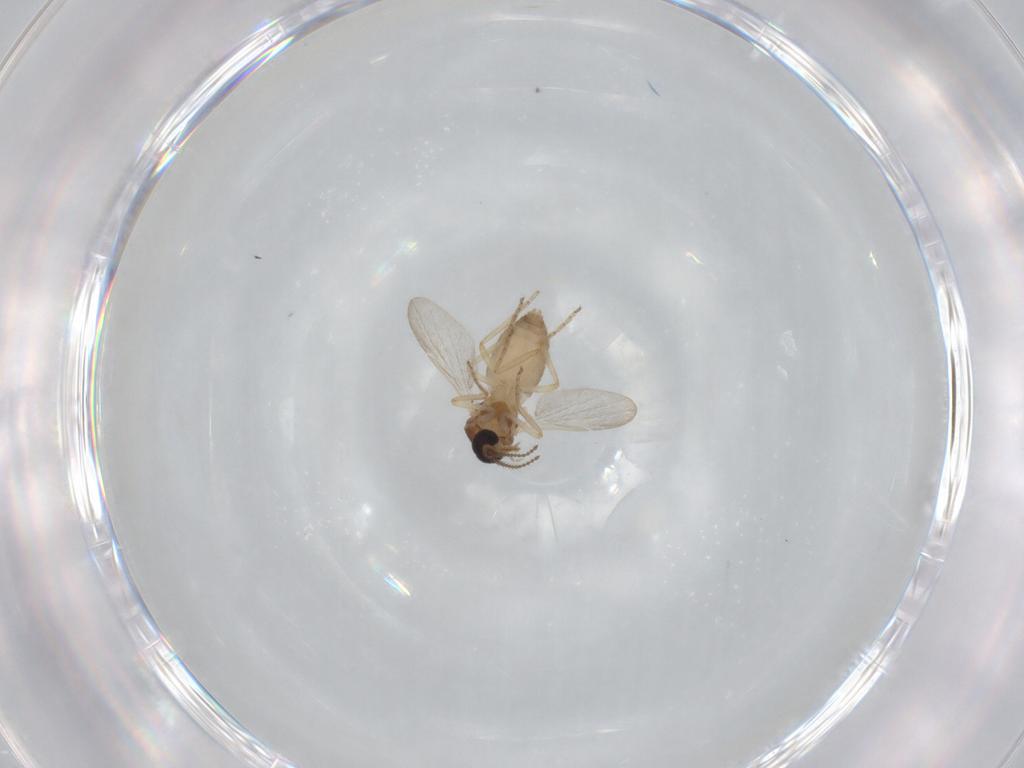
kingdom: Animalia
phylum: Arthropoda
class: Insecta
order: Diptera
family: Ceratopogonidae
